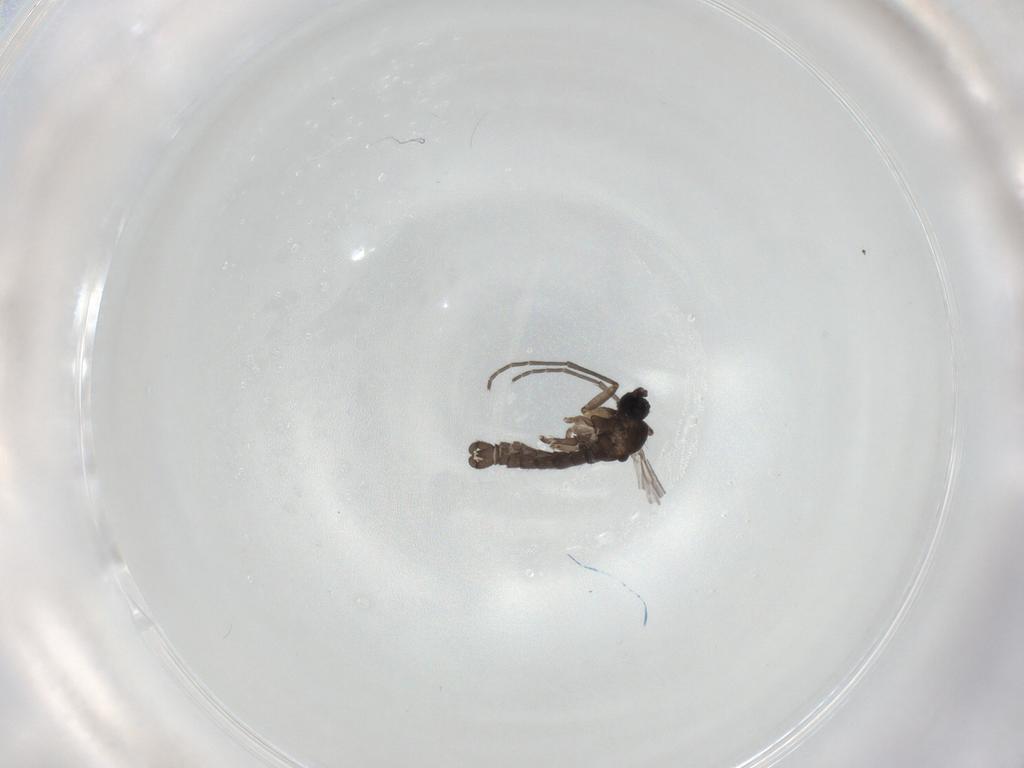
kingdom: Animalia
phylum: Arthropoda
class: Insecta
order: Diptera
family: Sciaridae
